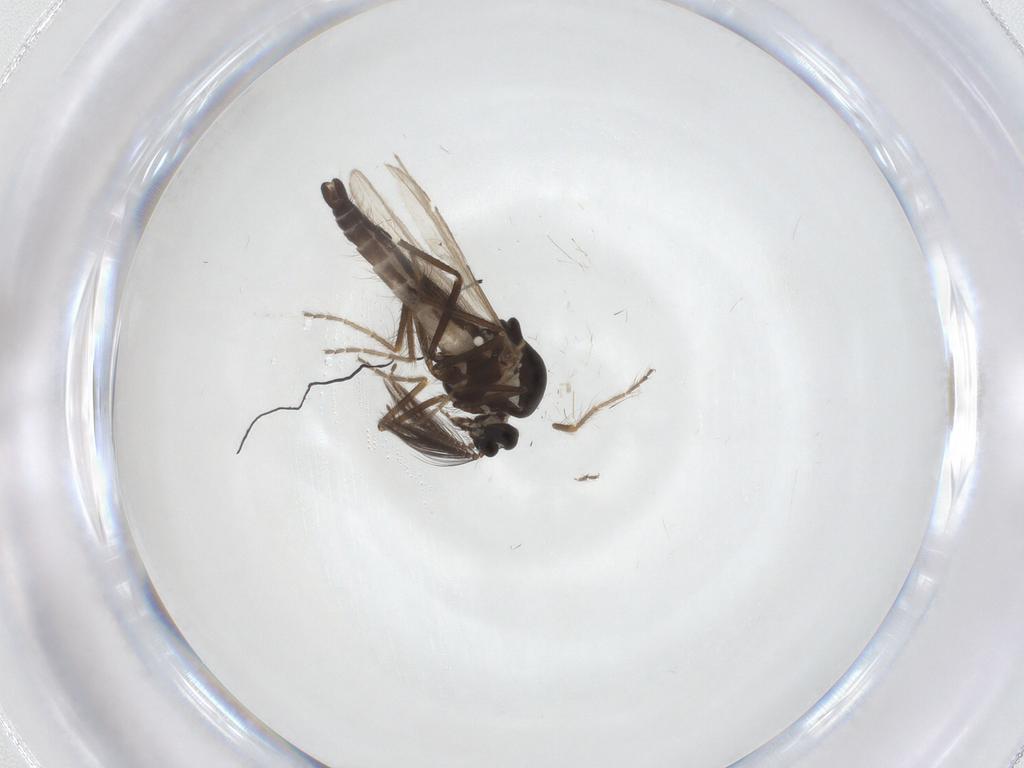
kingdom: Animalia
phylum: Arthropoda
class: Insecta
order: Diptera
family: Ceratopogonidae
